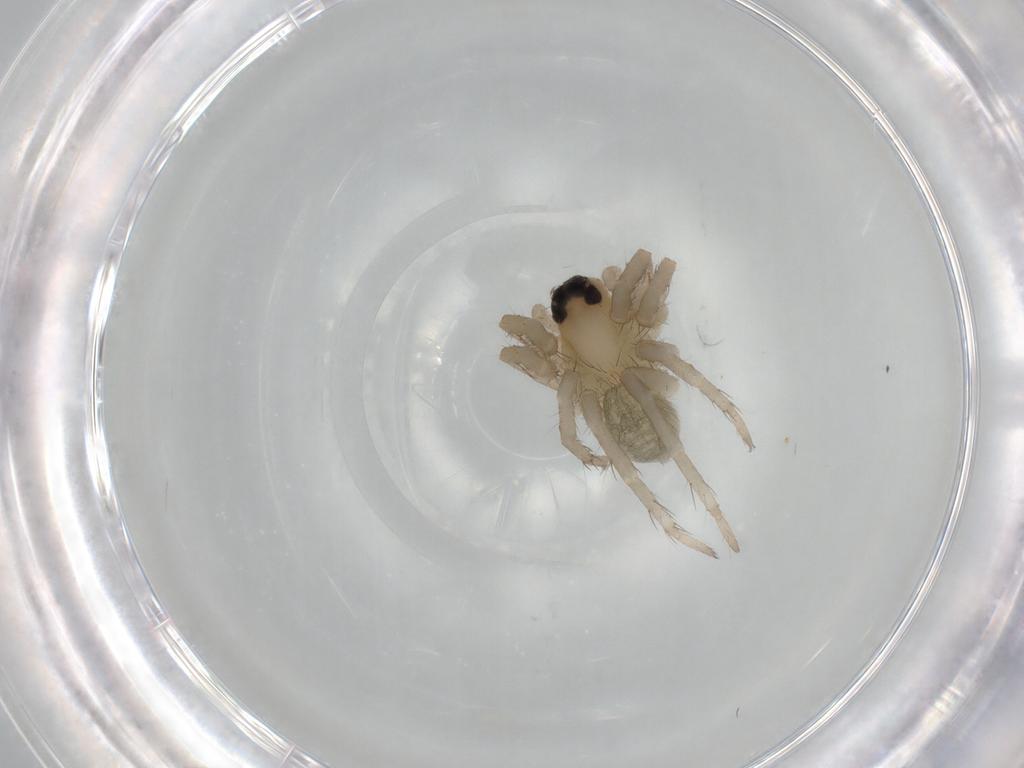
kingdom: Animalia
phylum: Arthropoda
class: Arachnida
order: Araneae
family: Lycosidae
